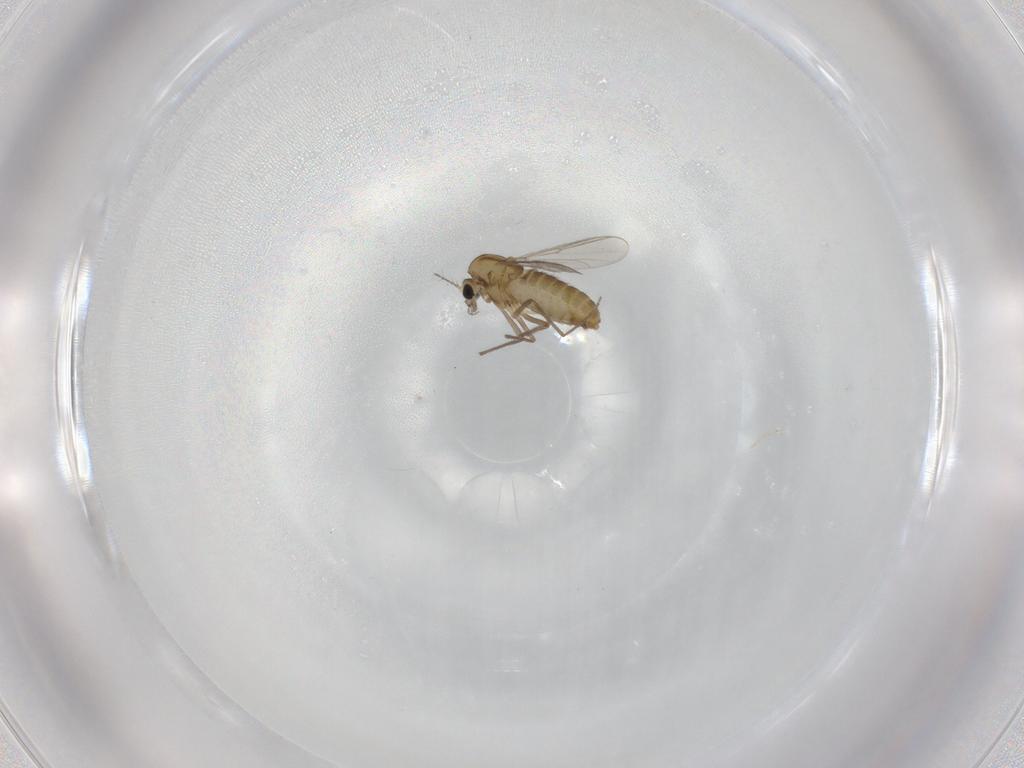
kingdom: Animalia
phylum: Arthropoda
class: Insecta
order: Diptera
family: Chironomidae
